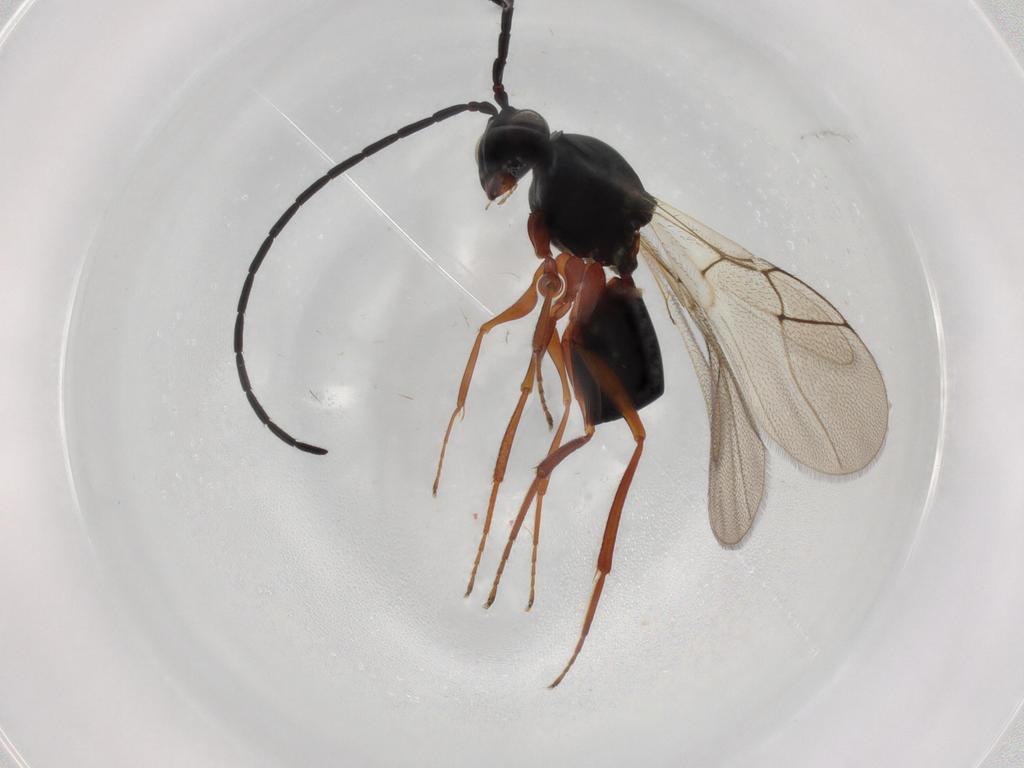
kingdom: Animalia
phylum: Arthropoda
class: Insecta
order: Hymenoptera
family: Figitidae
